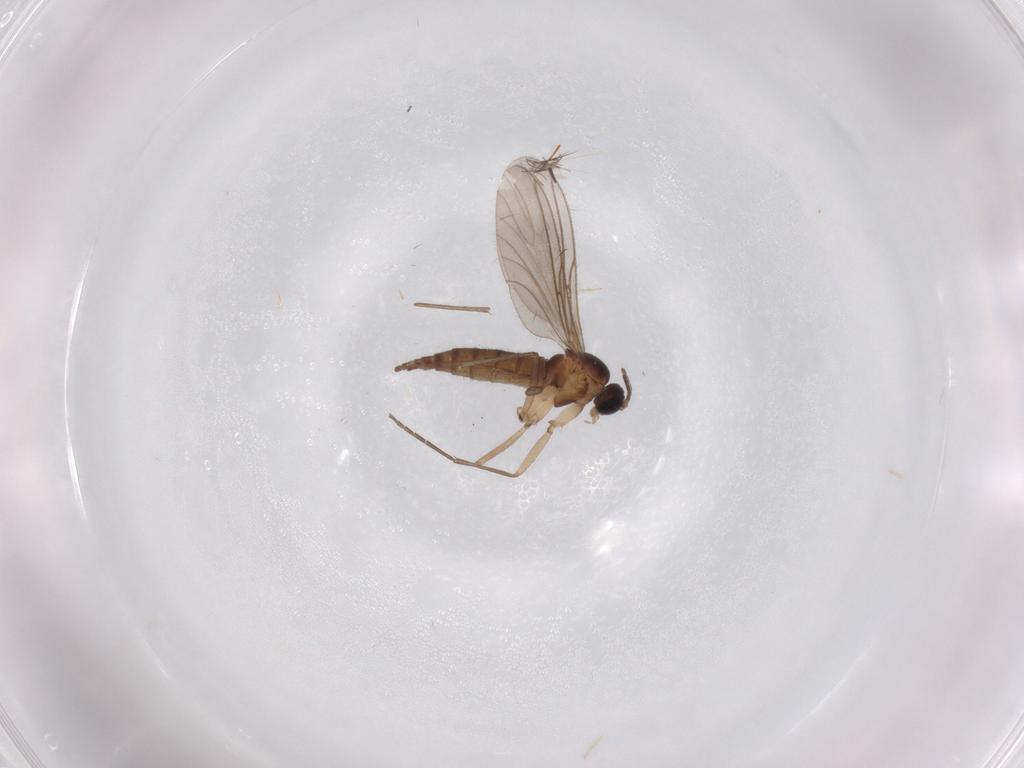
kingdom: Animalia
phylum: Arthropoda
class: Insecta
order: Diptera
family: Sciaridae
